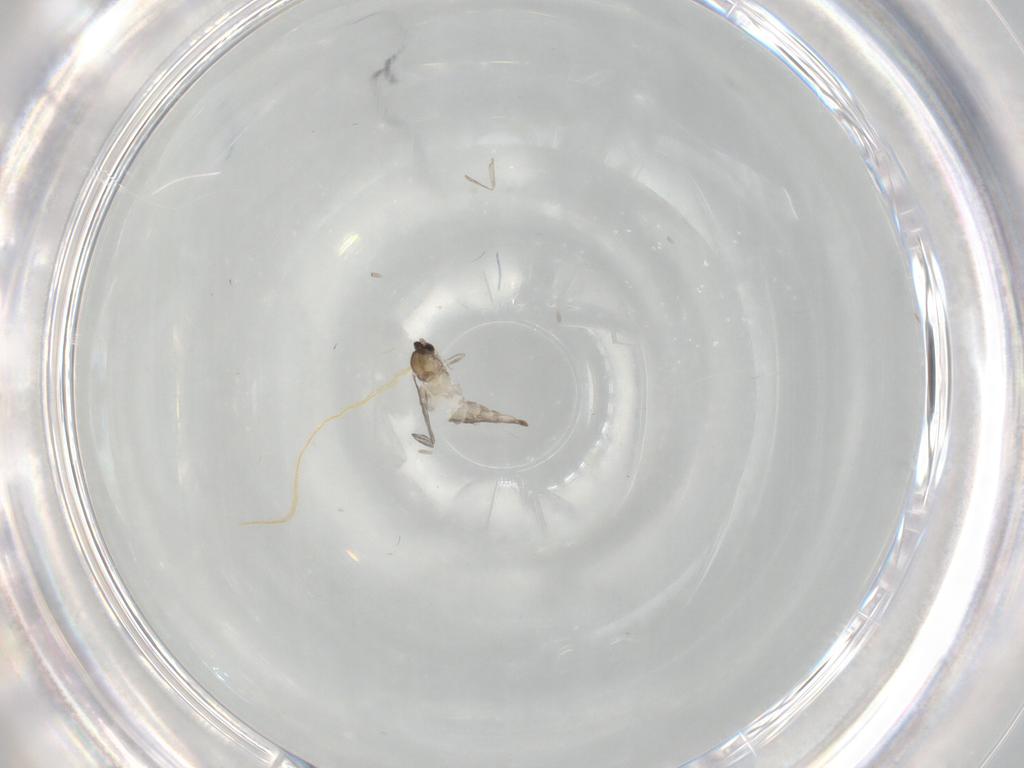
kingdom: Animalia
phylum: Arthropoda
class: Insecta
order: Diptera
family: Cecidomyiidae
